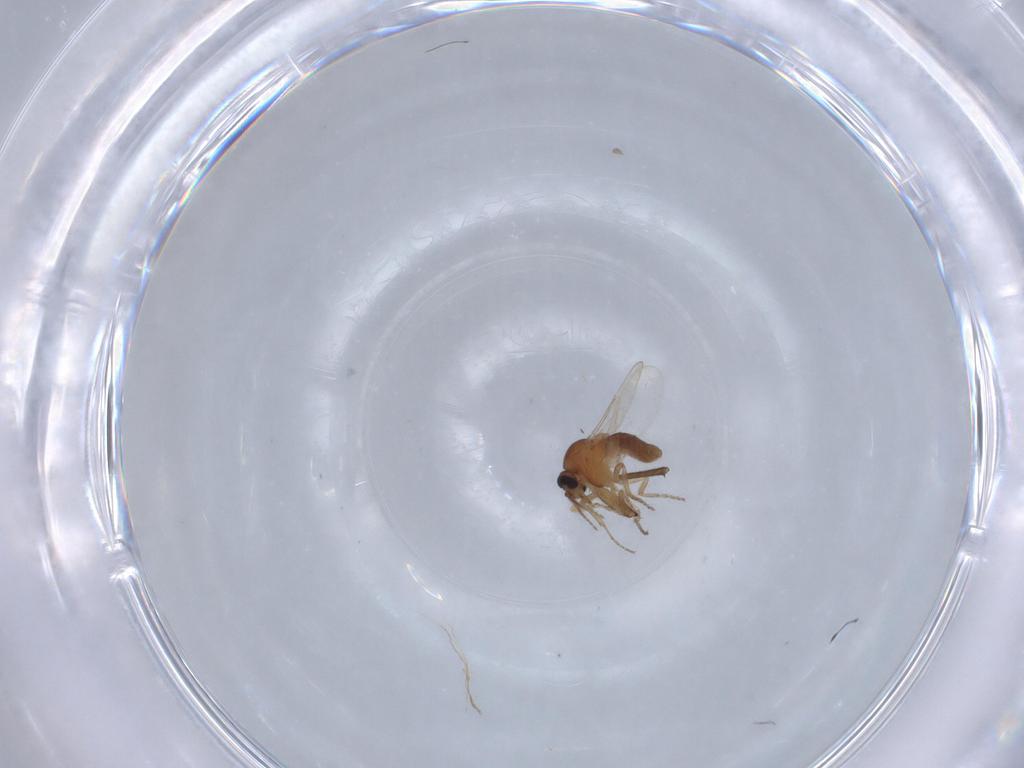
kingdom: Animalia
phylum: Arthropoda
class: Insecta
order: Diptera
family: Ceratopogonidae
